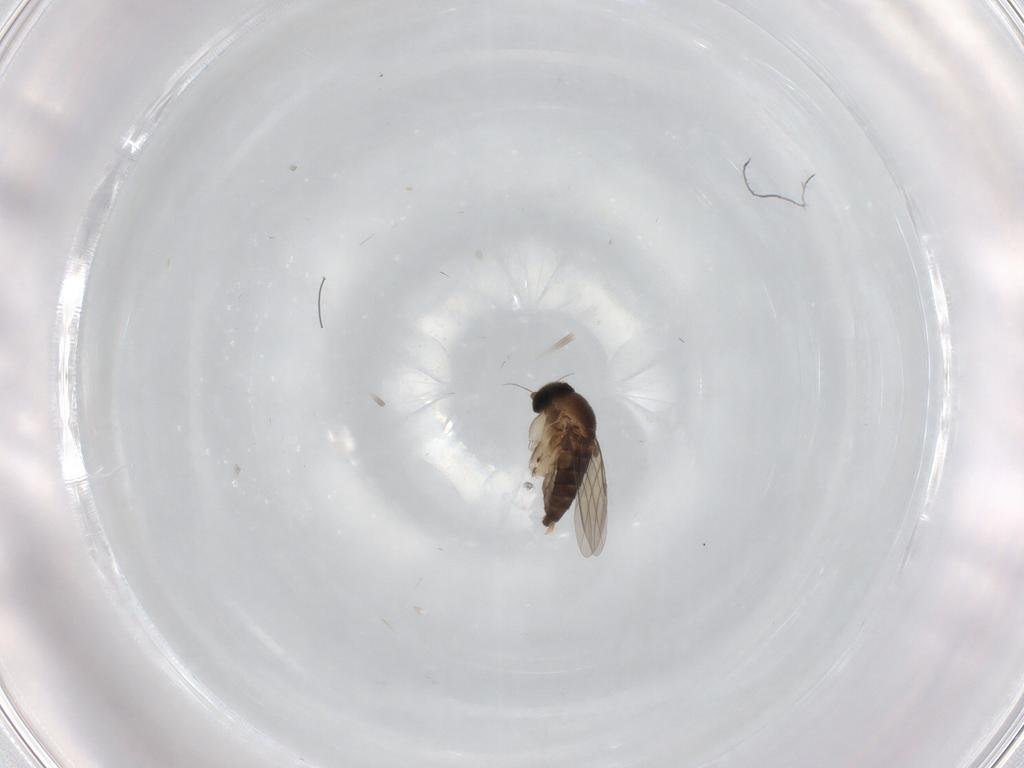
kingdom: Animalia
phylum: Arthropoda
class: Insecta
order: Diptera
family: Phoridae
